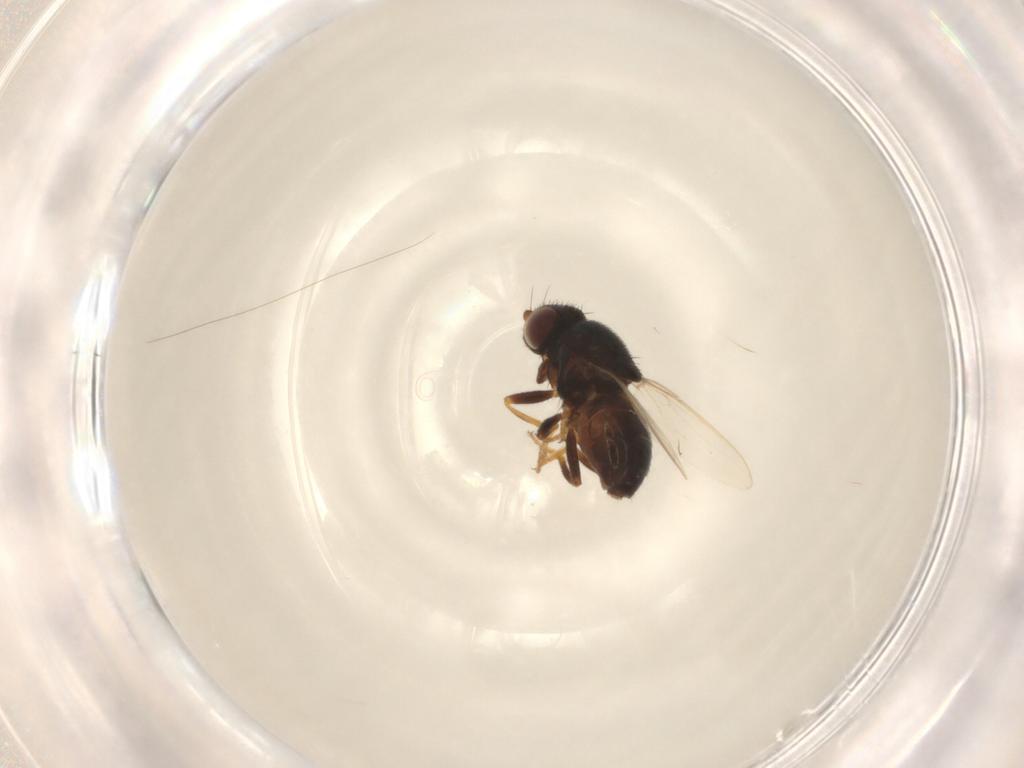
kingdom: Animalia
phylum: Arthropoda
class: Insecta
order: Diptera
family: Chloropidae
